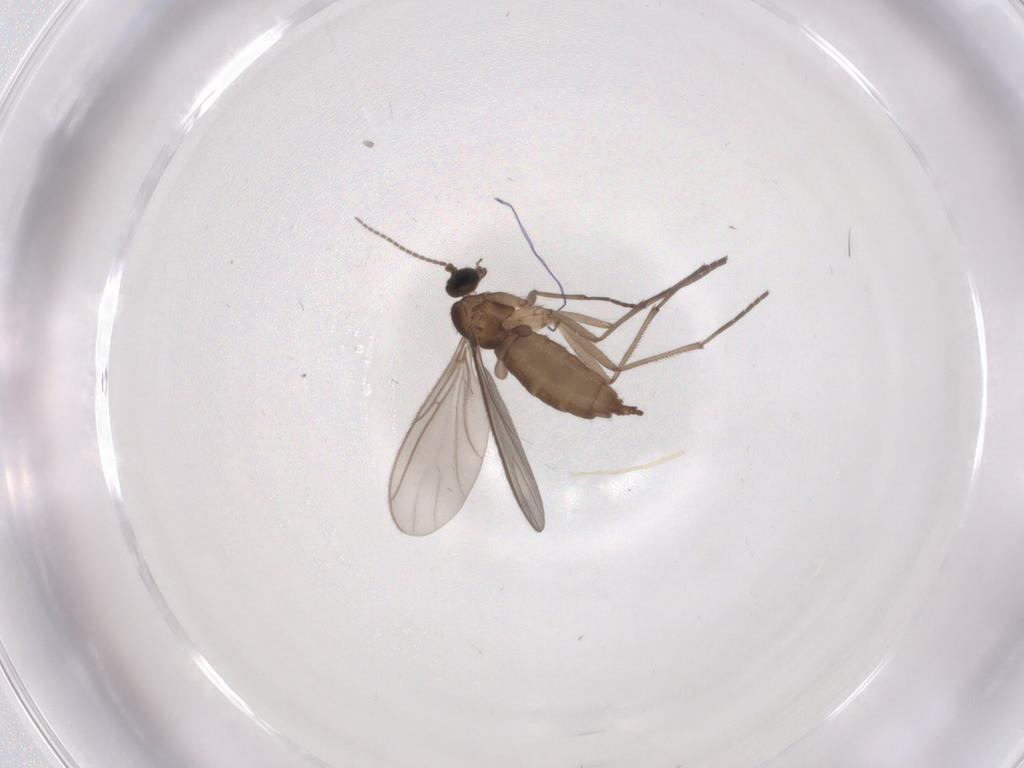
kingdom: Animalia
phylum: Arthropoda
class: Insecta
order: Diptera
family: Sciaridae
